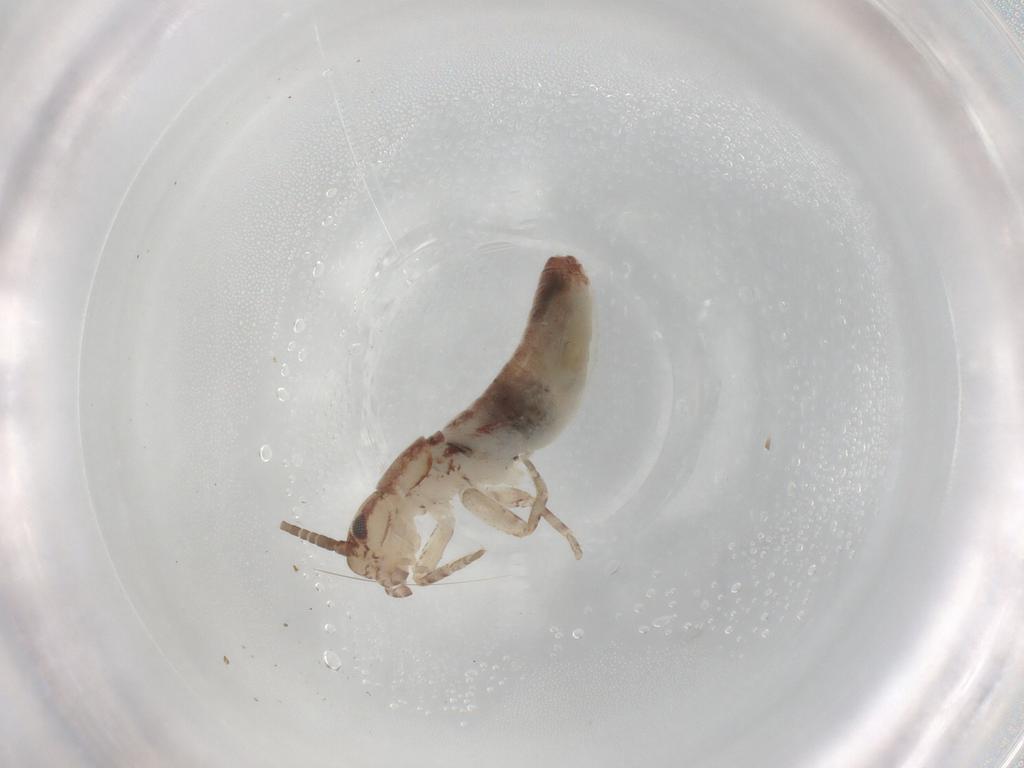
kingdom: Animalia
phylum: Arthropoda
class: Insecta
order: Orthoptera
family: Mogoplistidae
